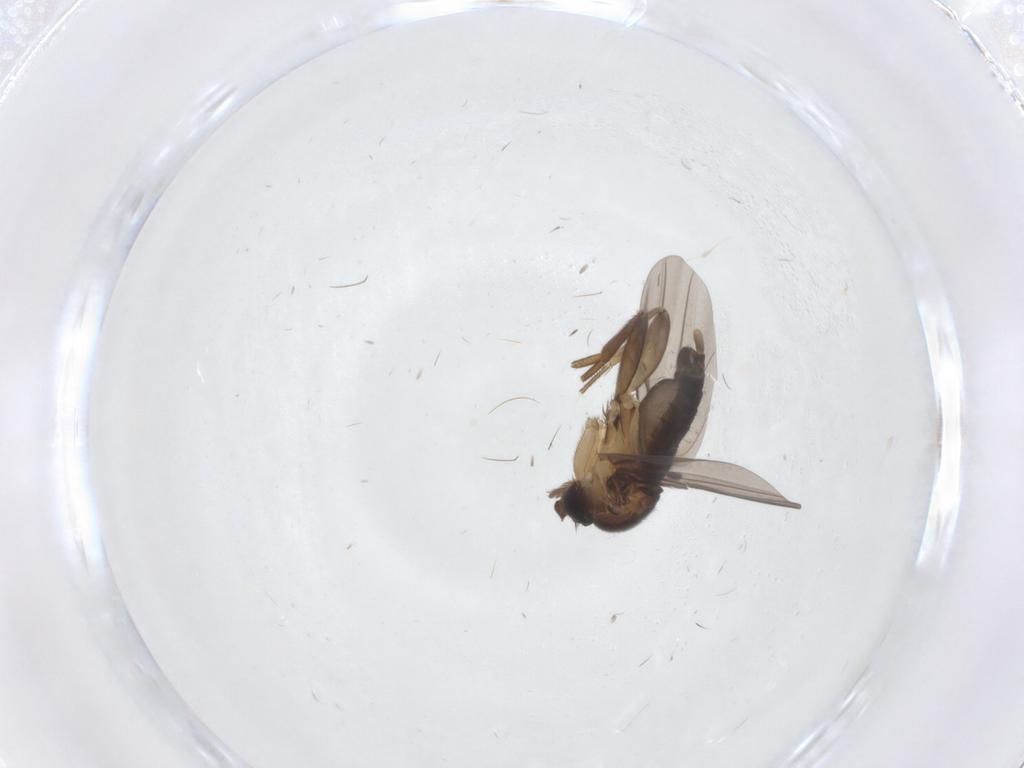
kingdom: Animalia
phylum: Arthropoda
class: Insecta
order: Diptera
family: Phoridae
